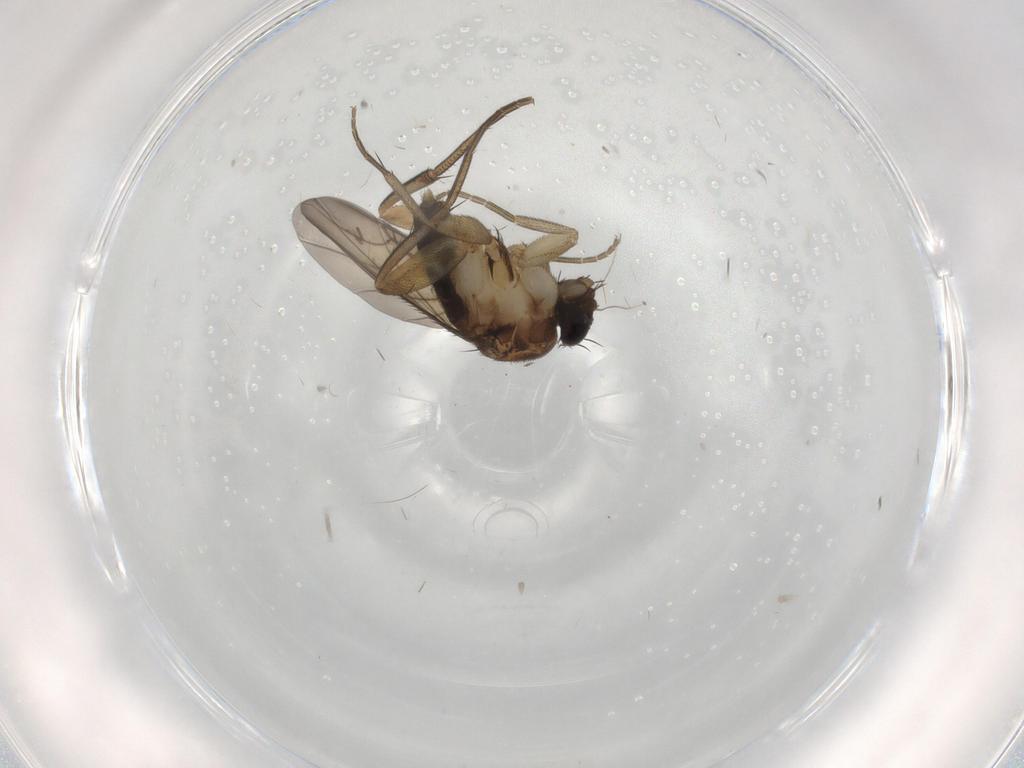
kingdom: Animalia
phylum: Arthropoda
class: Insecta
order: Diptera
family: Phoridae
